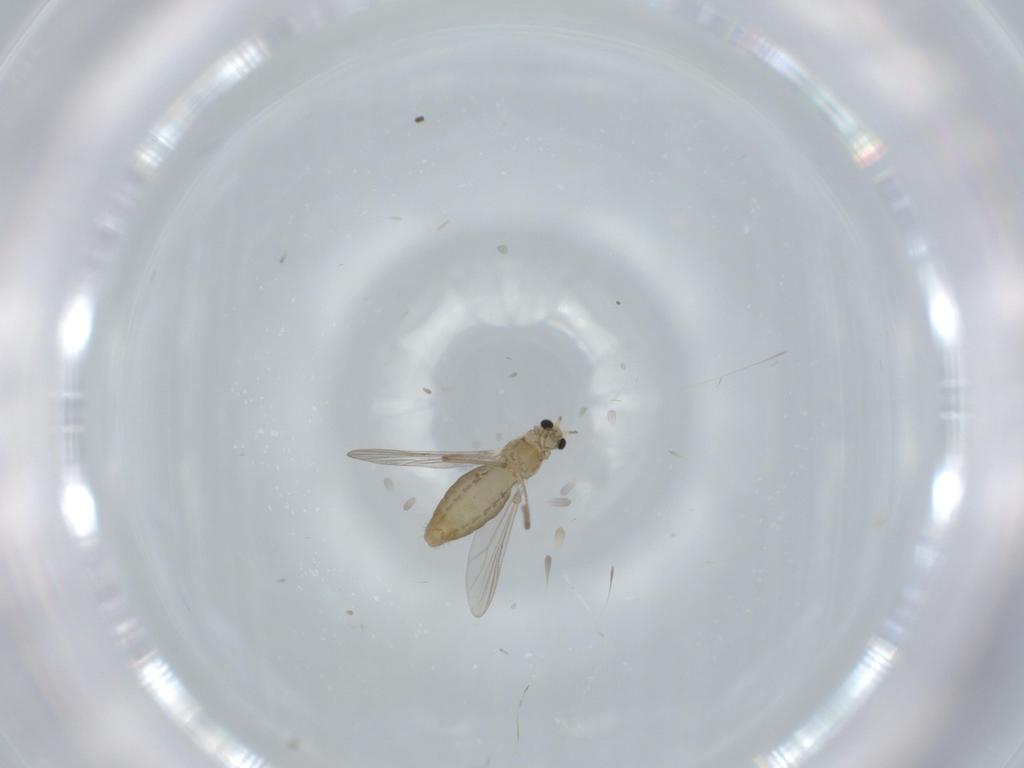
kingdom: Animalia
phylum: Arthropoda
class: Insecta
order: Diptera
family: Chironomidae
